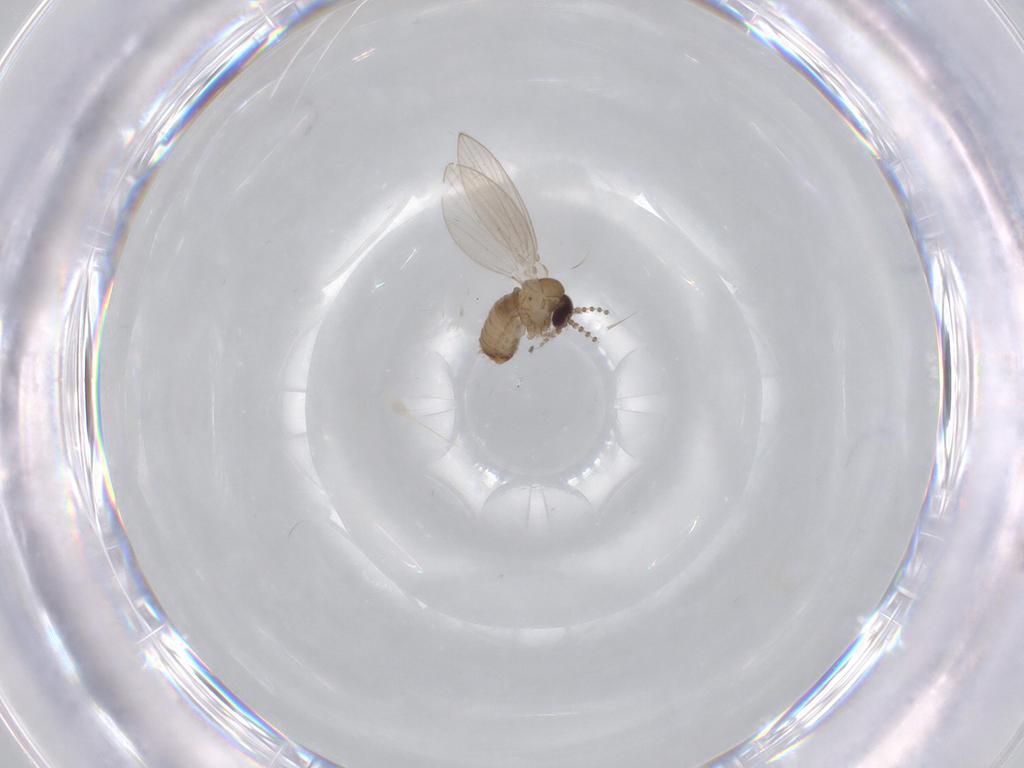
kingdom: Animalia
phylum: Arthropoda
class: Insecta
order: Diptera
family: Psychodidae
